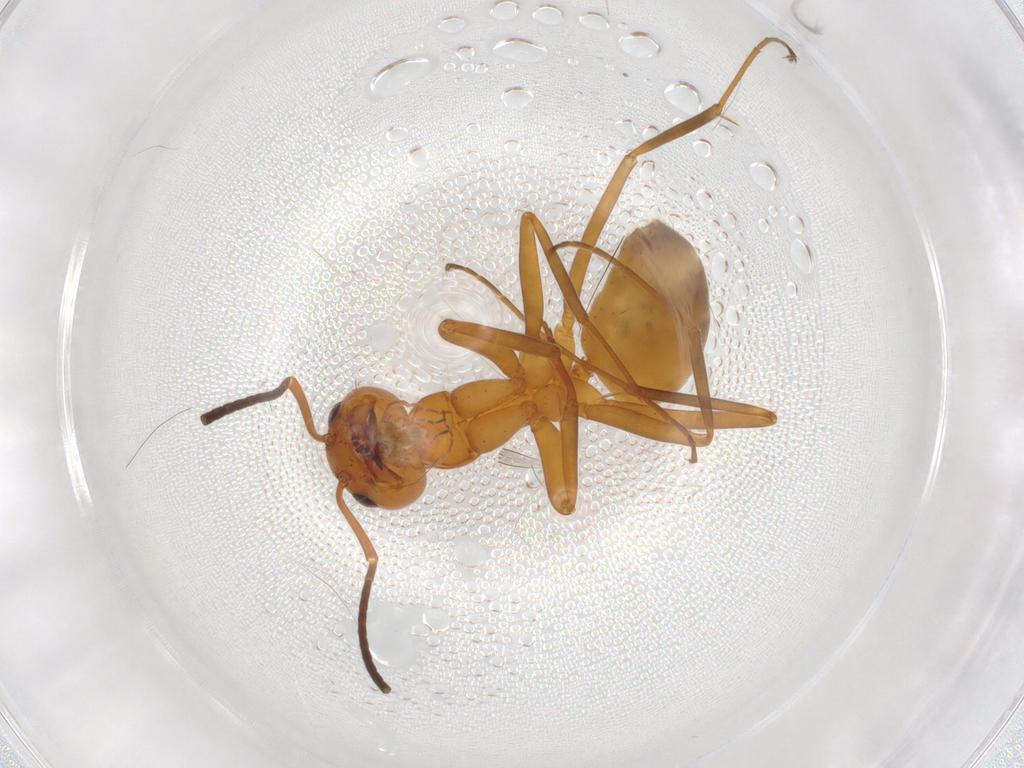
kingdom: Animalia
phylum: Arthropoda
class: Insecta
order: Hymenoptera
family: Formicidae
